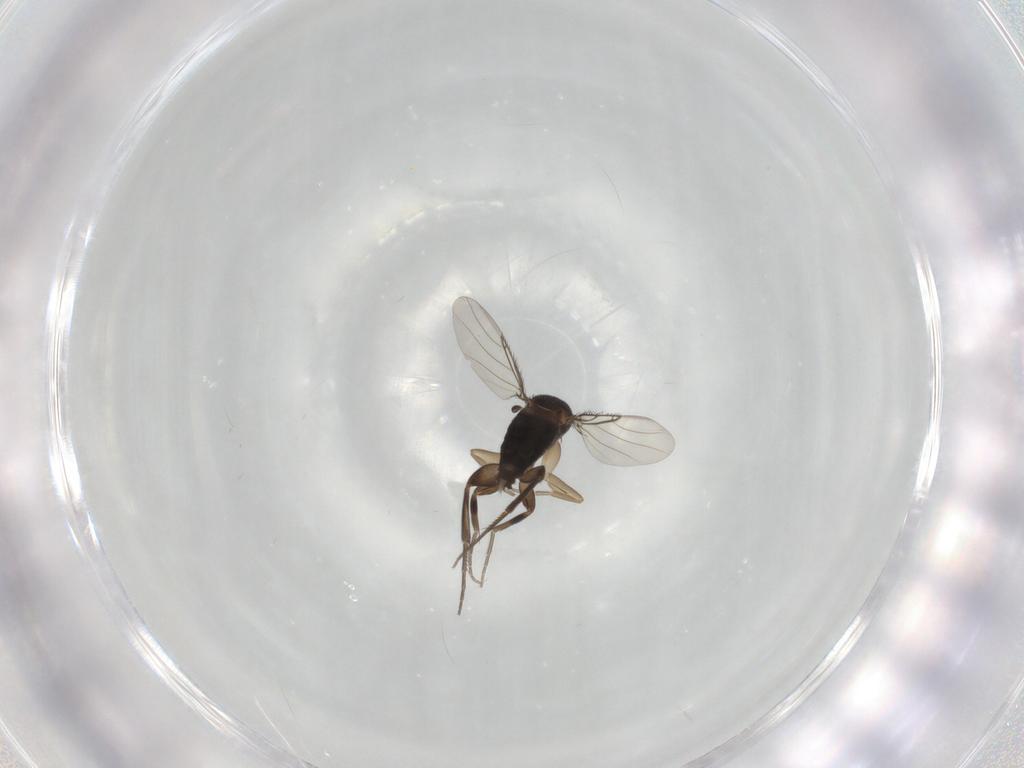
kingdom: Animalia
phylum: Arthropoda
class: Insecta
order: Diptera
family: Phoridae
